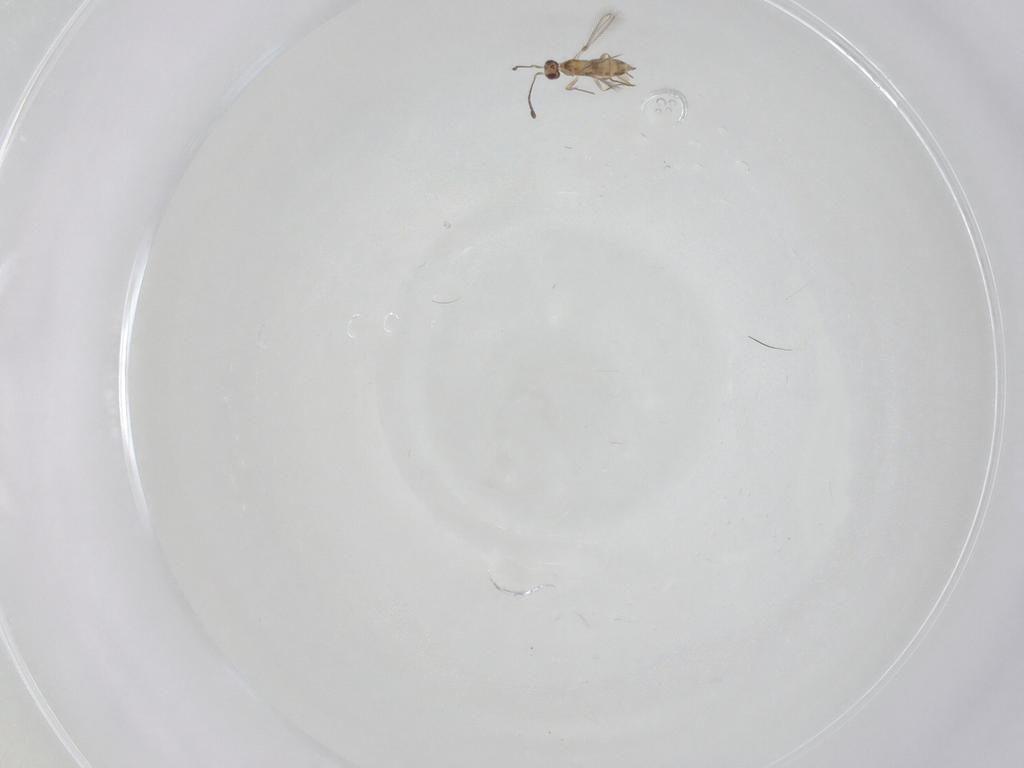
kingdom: Animalia
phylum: Arthropoda
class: Insecta
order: Hymenoptera
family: Mymaridae
